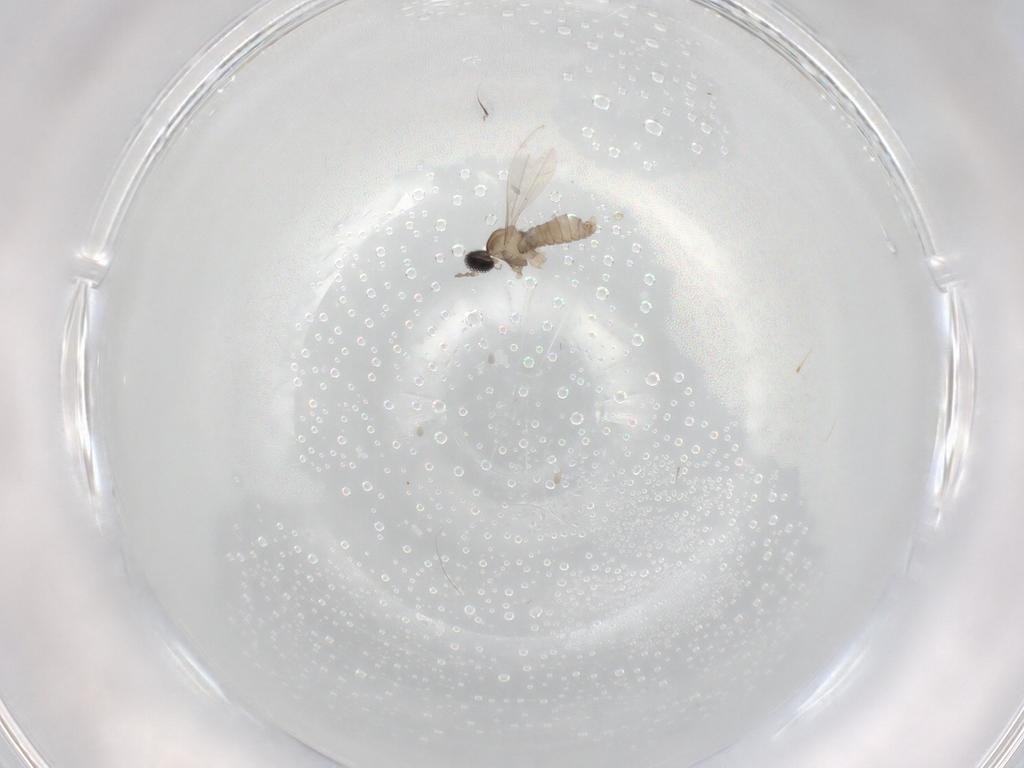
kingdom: Animalia
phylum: Arthropoda
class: Insecta
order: Diptera
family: Cecidomyiidae
